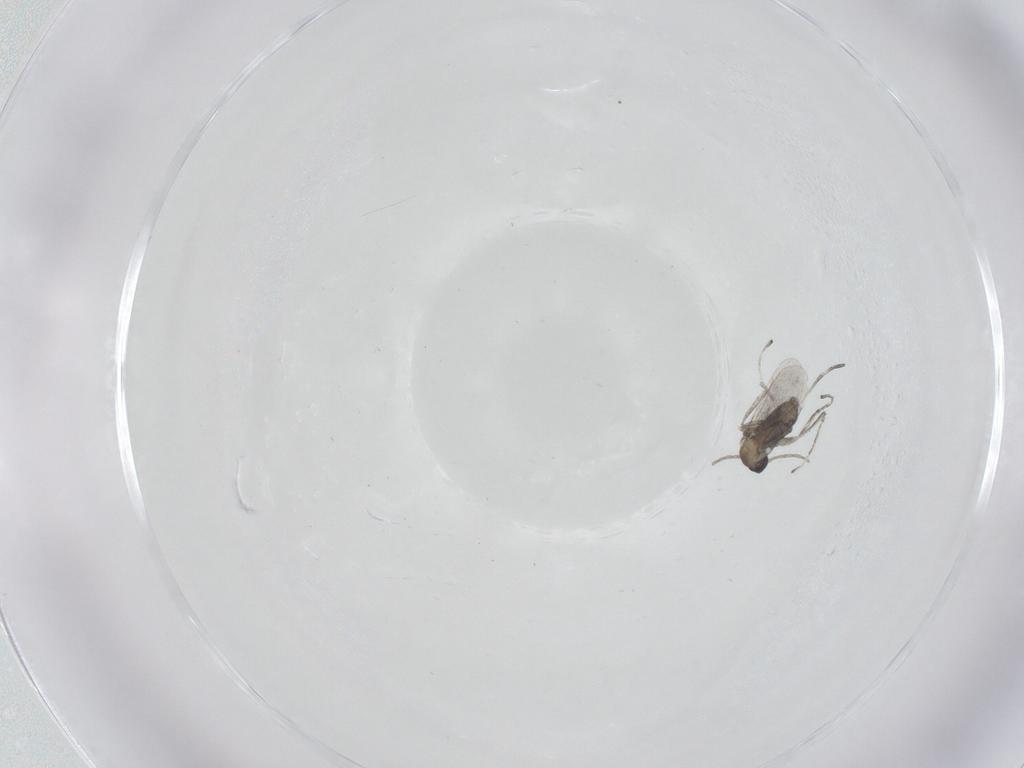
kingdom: Animalia
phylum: Arthropoda
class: Insecta
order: Diptera
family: Cecidomyiidae
